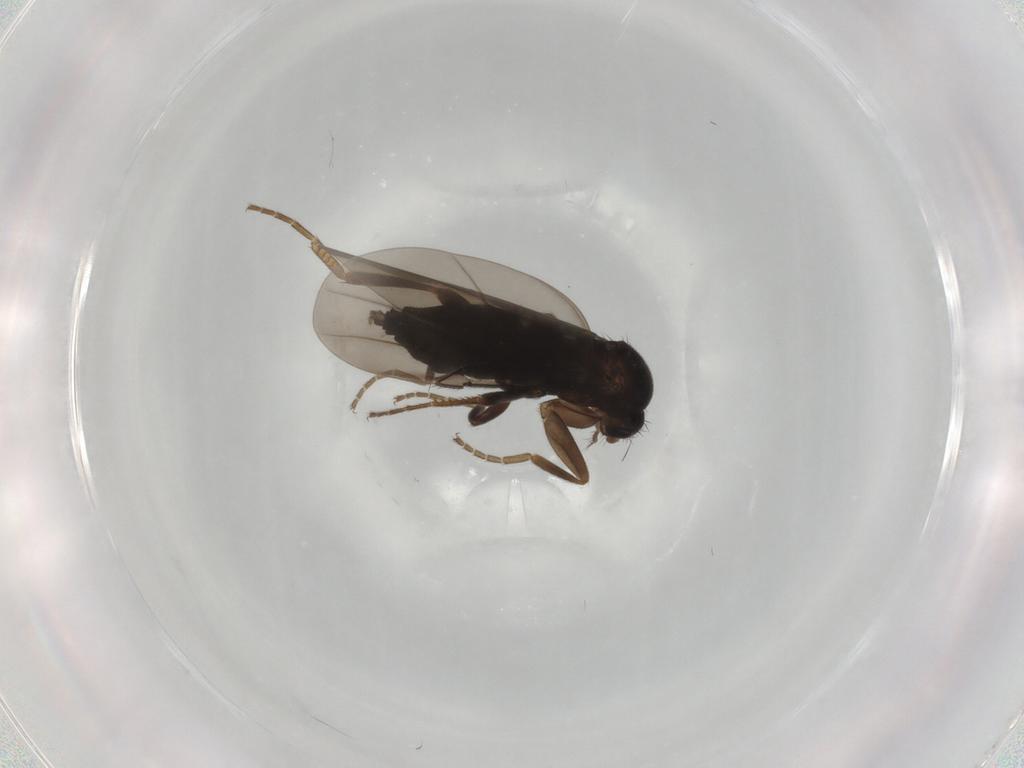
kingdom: Animalia
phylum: Arthropoda
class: Insecta
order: Diptera
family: Phoridae
